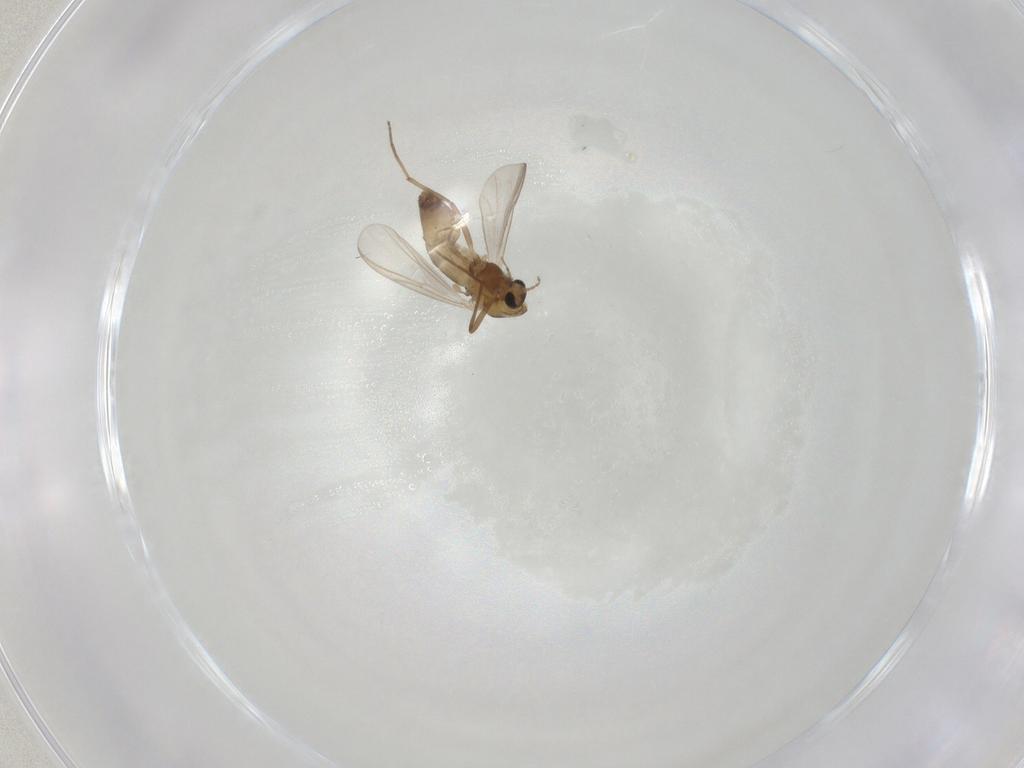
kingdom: Animalia
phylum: Arthropoda
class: Insecta
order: Diptera
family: Chironomidae
